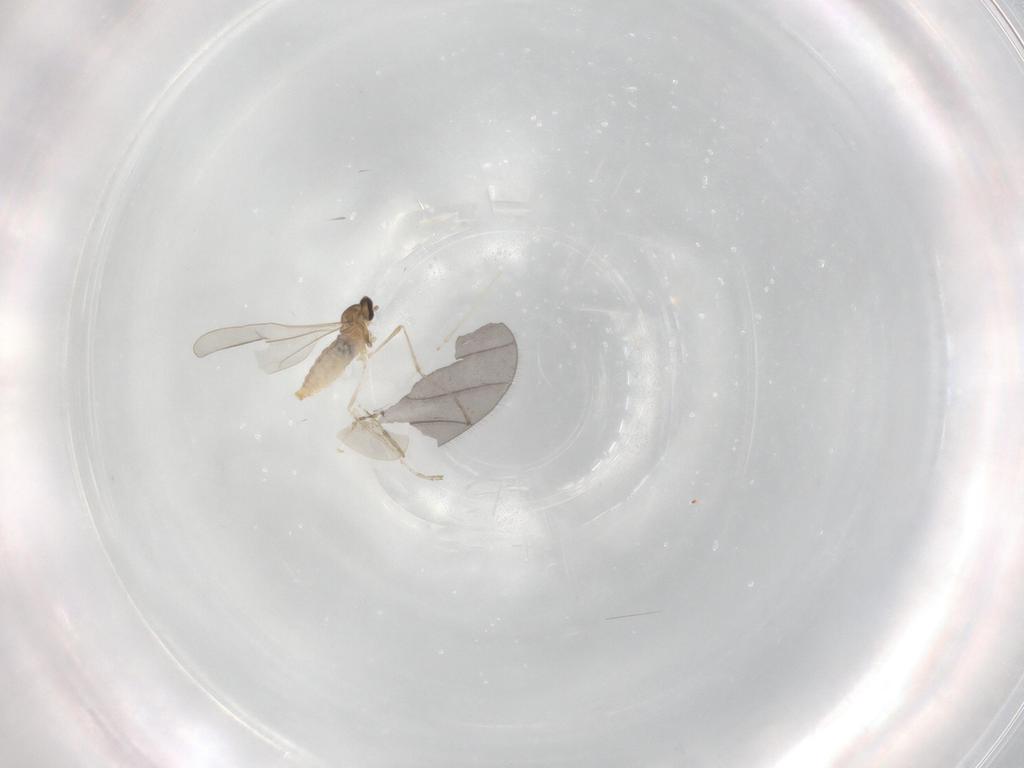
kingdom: Animalia
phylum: Arthropoda
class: Insecta
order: Diptera
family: Cecidomyiidae
